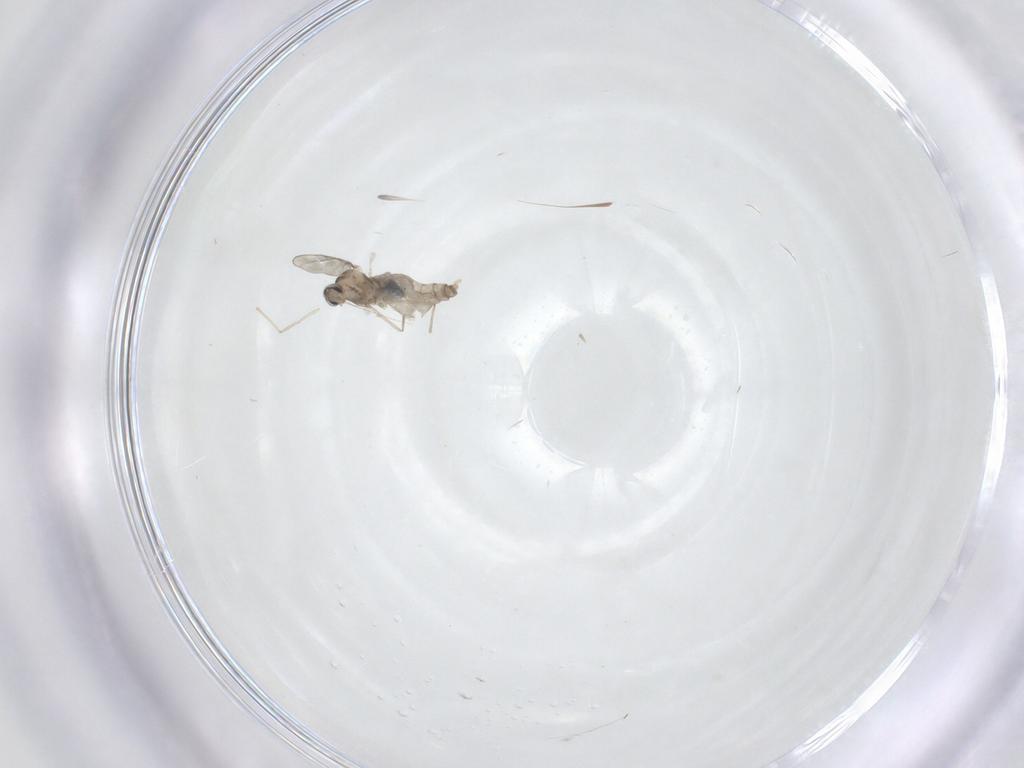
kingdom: Animalia
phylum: Arthropoda
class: Insecta
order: Diptera
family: Cecidomyiidae
